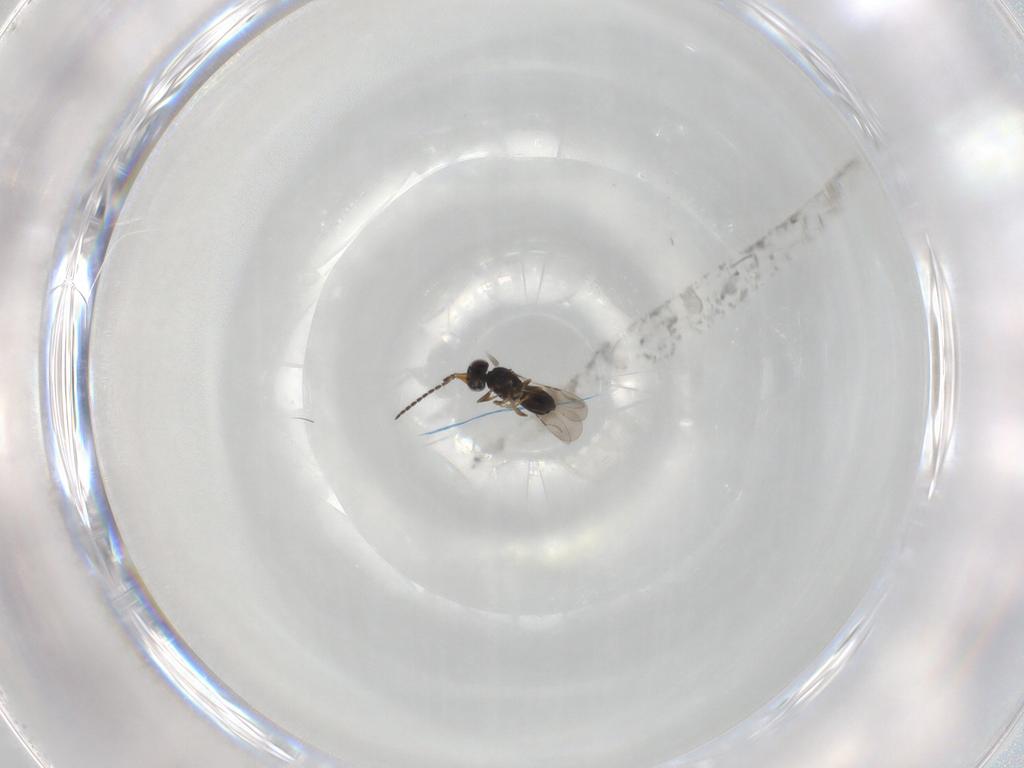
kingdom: Animalia
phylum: Arthropoda
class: Insecta
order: Hymenoptera
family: Ceraphronidae
